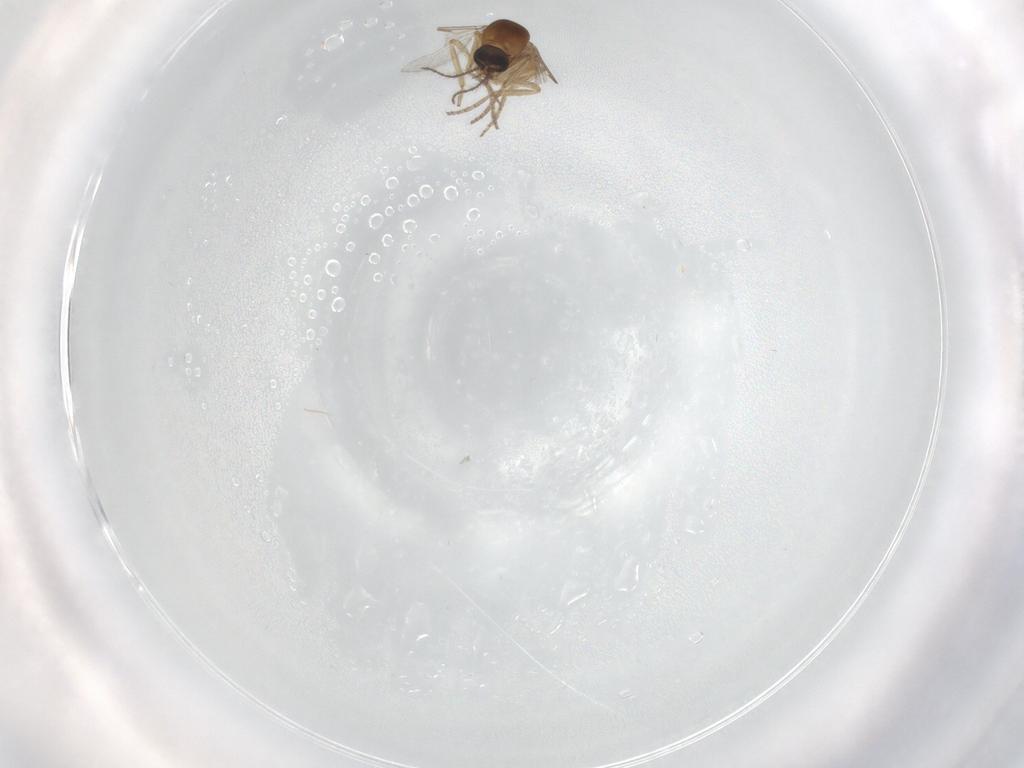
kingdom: Animalia
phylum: Arthropoda
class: Insecta
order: Diptera
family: Ceratopogonidae
